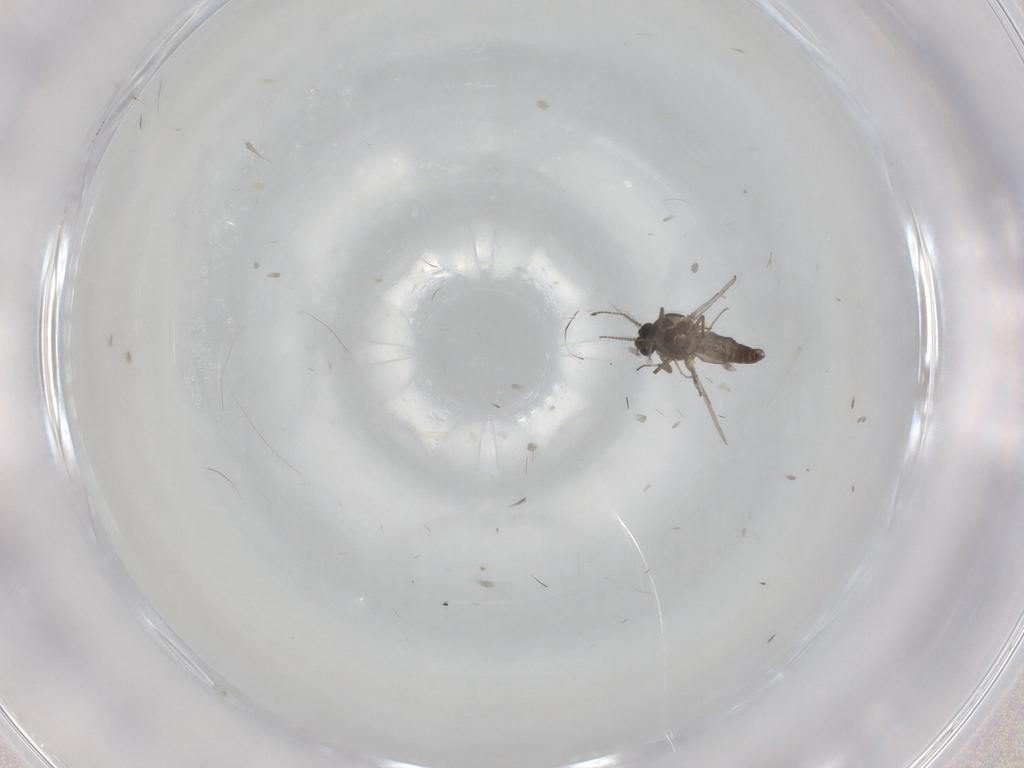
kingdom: Animalia
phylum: Arthropoda
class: Insecta
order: Diptera
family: Ceratopogonidae
